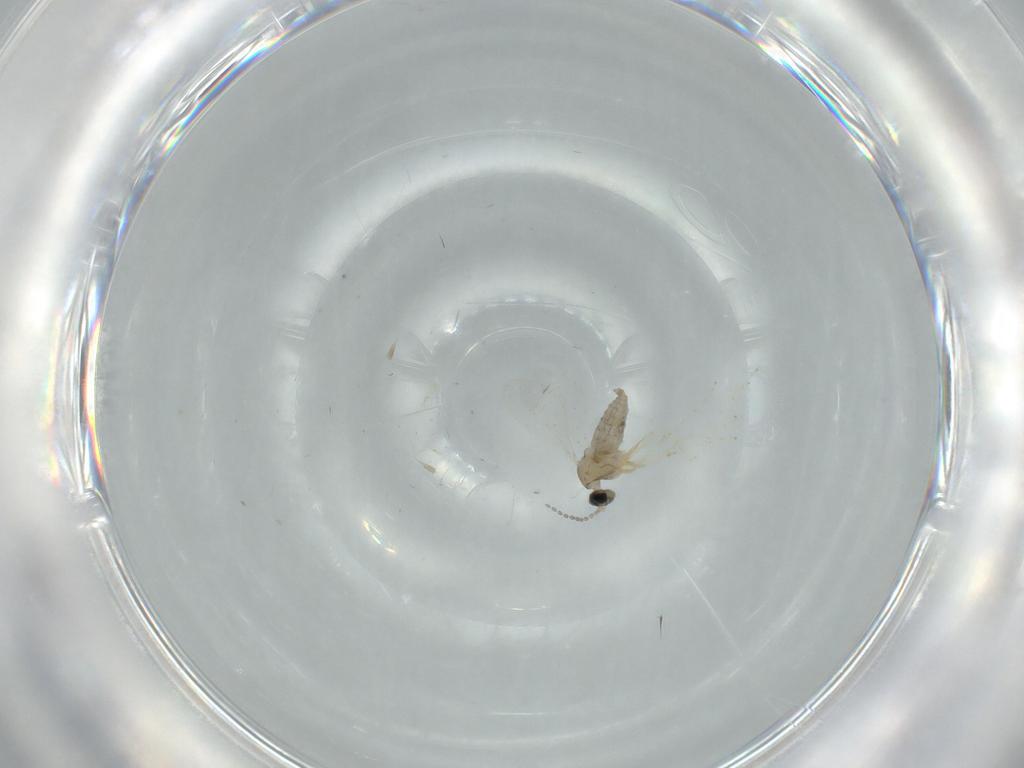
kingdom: Animalia
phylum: Arthropoda
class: Insecta
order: Diptera
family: Cecidomyiidae
